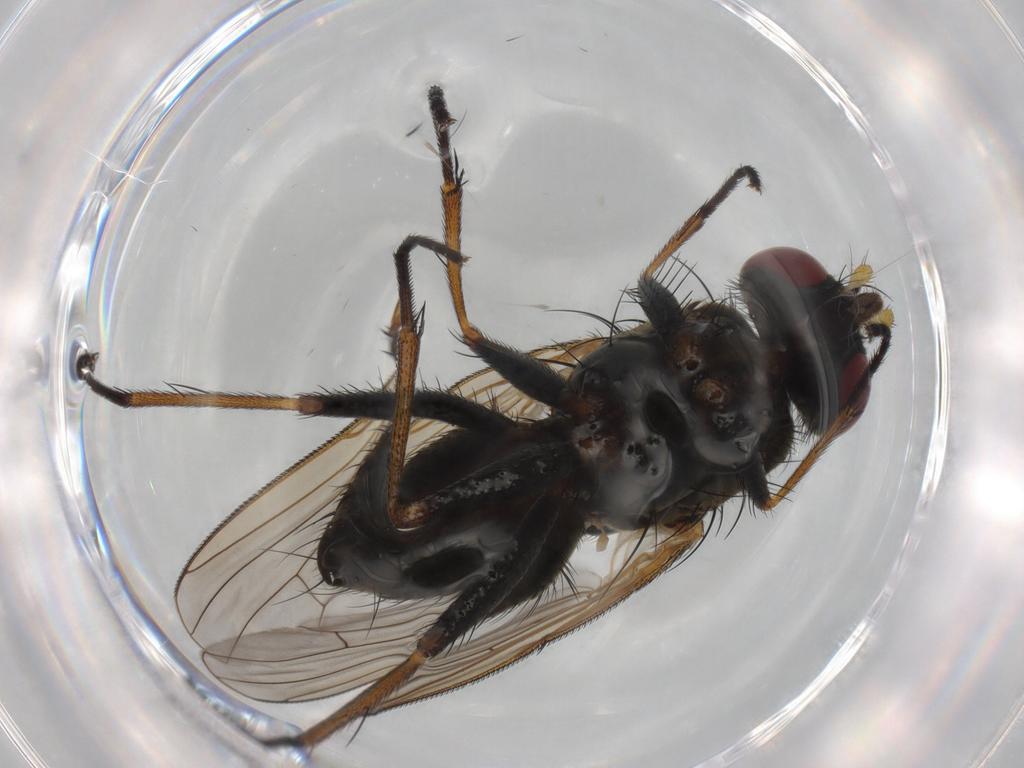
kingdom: Animalia
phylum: Arthropoda
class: Insecta
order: Diptera
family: Muscidae
